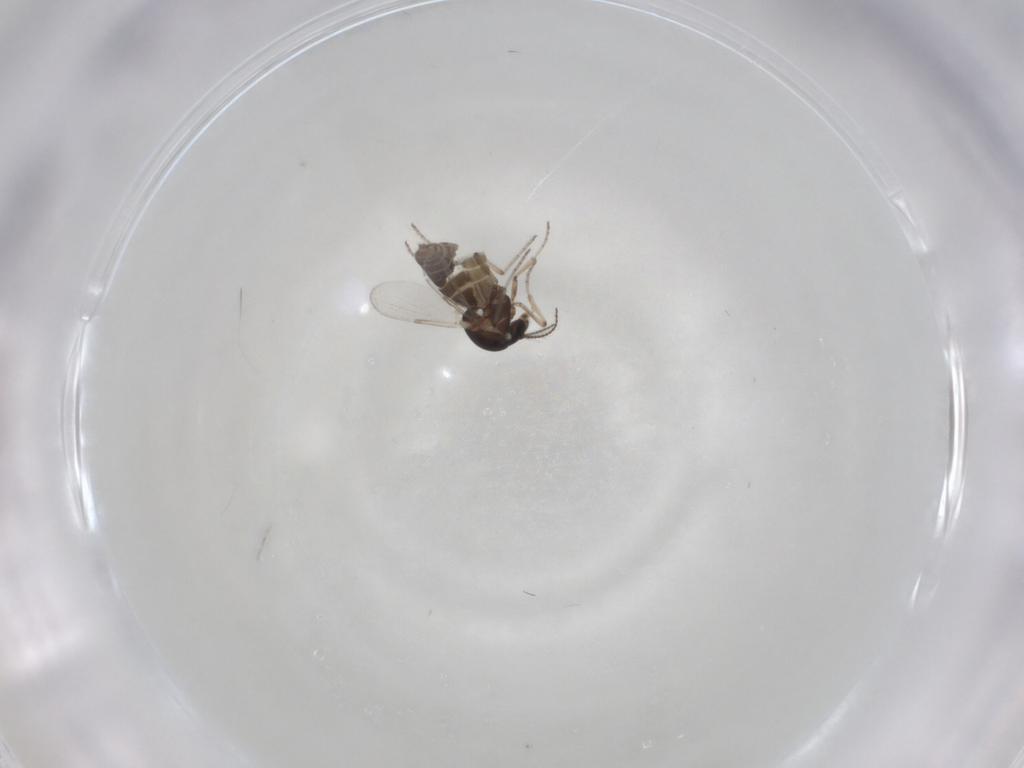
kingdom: Animalia
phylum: Arthropoda
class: Insecta
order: Diptera
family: Ceratopogonidae
